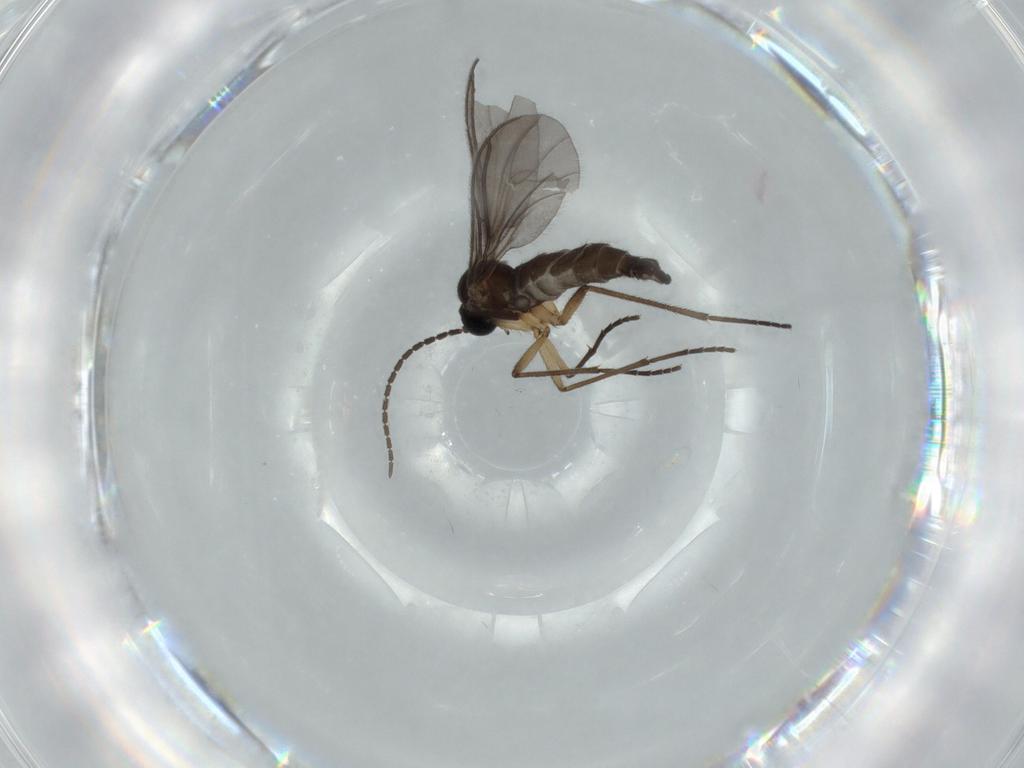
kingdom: Animalia
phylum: Arthropoda
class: Insecta
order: Diptera
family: Sciaridae
